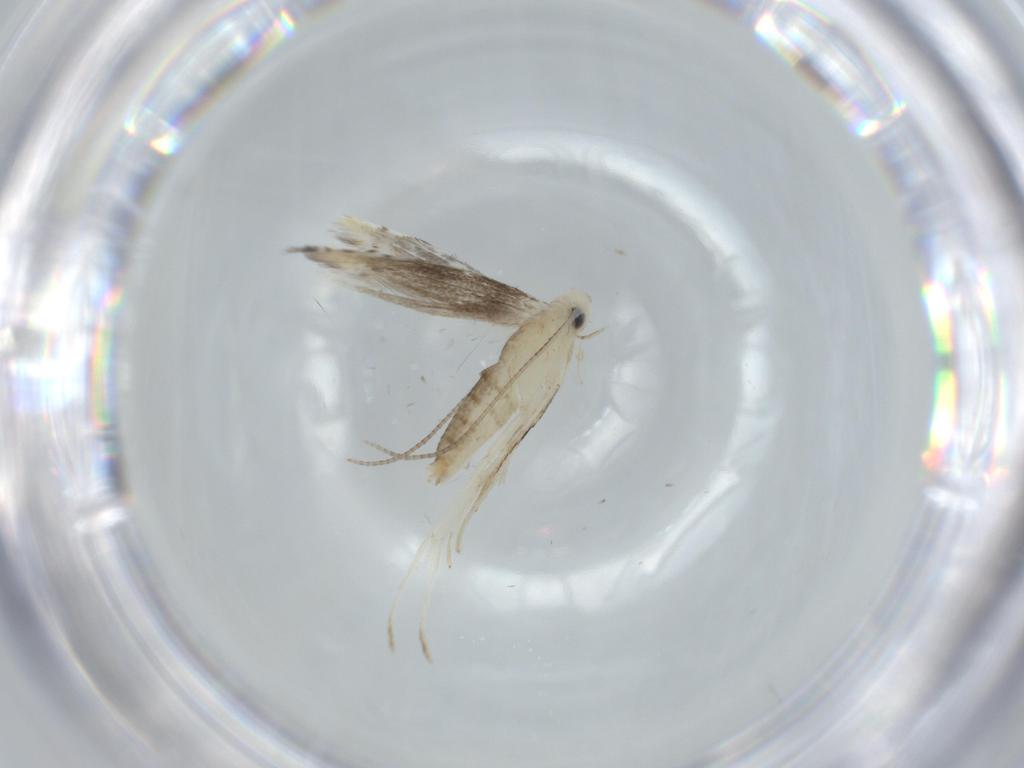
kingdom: Animalia
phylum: Arthropoda
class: Insecta
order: Lepidoptera
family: Gracillariidae
